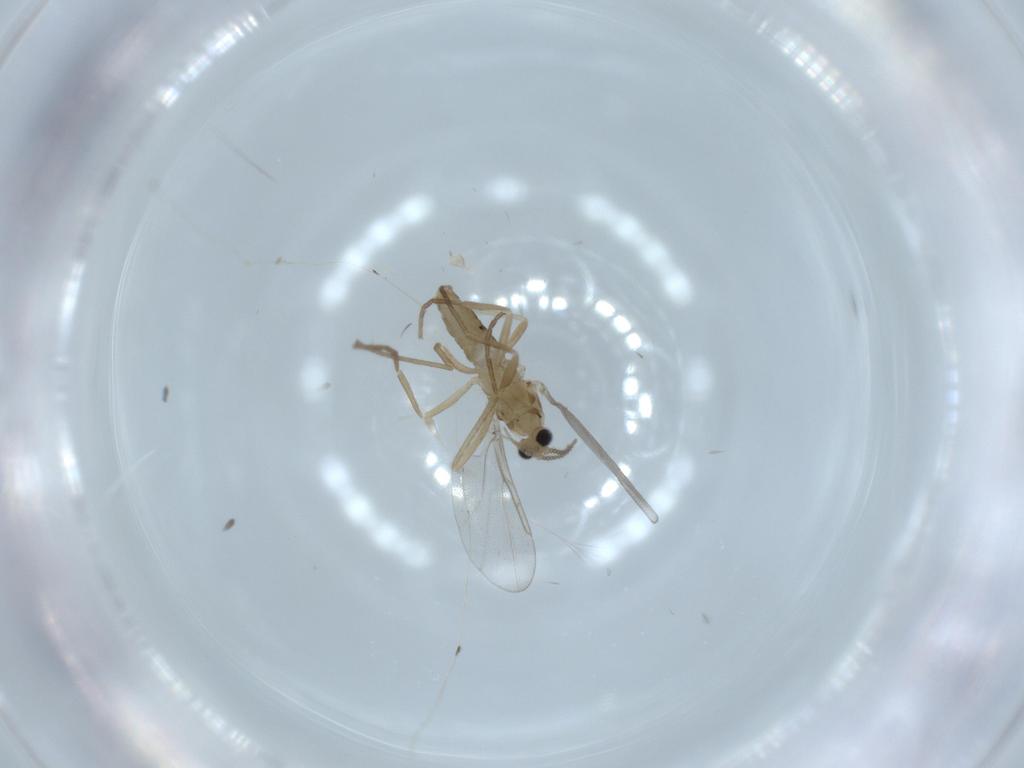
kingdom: Animalia
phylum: Arthropoda
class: Insecta
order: Diptera
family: Cecidomyiidae
